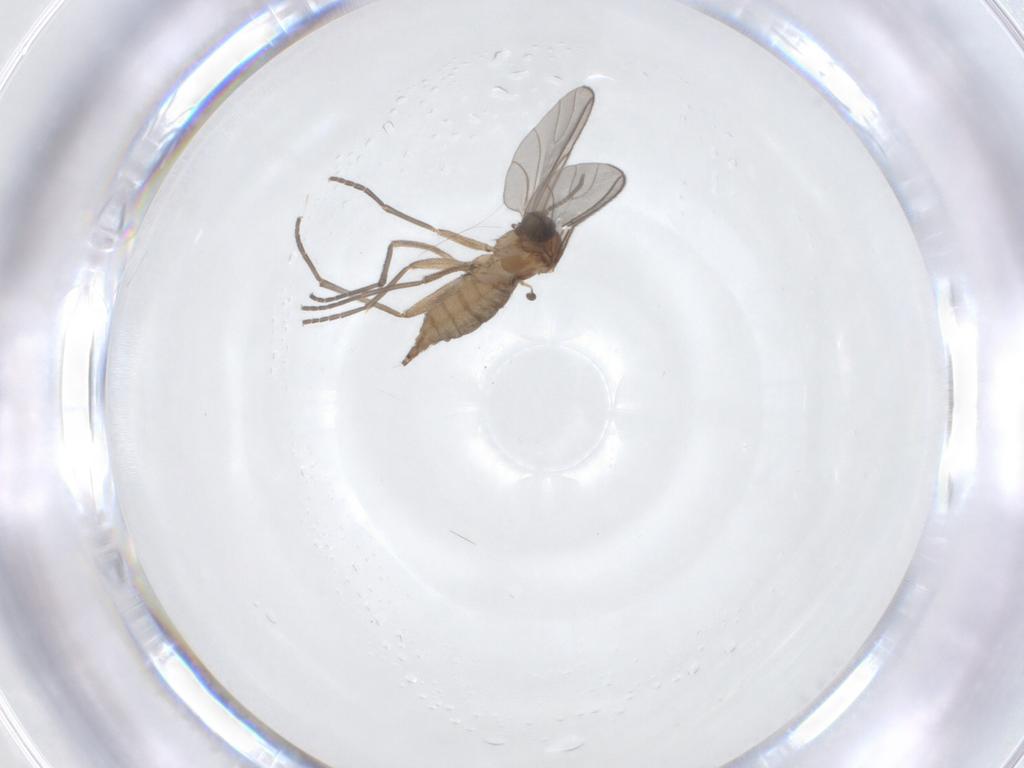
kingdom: Animalia
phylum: Arthropoda
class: Insecta
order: Diptera
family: Sciaridae
